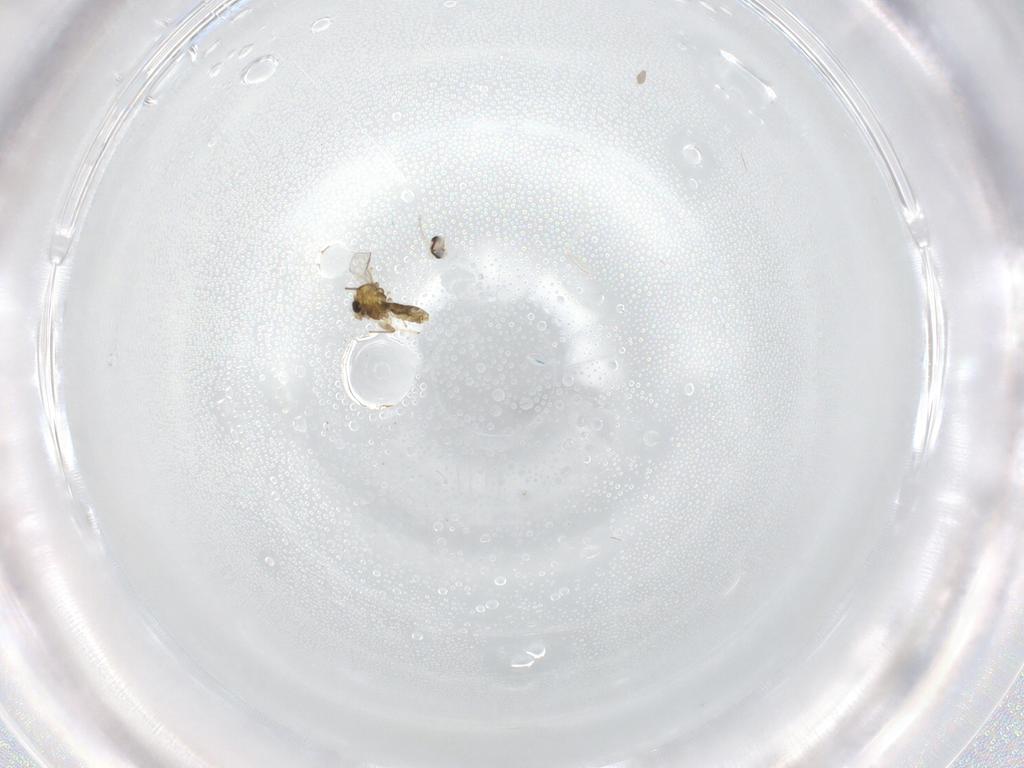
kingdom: Animalia
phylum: Arthropoda
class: Insecta
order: Diptera
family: Chironomidae
